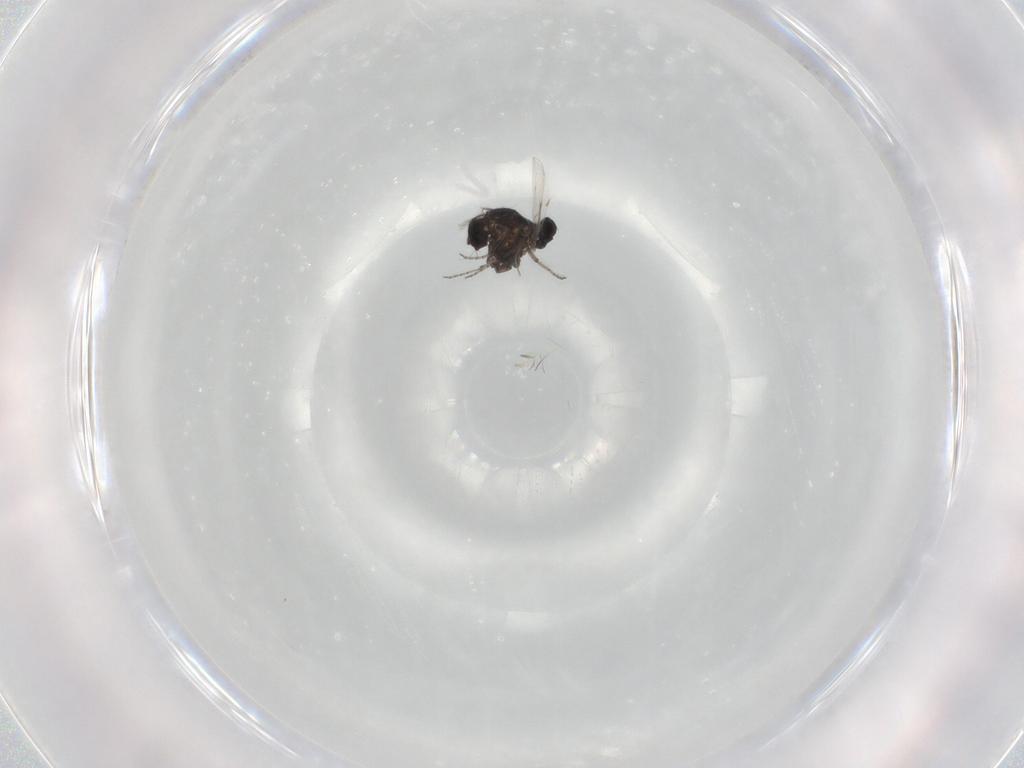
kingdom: Animalia
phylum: Arthropoda
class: Insecta
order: Diptera
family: Ceratopogonidae
